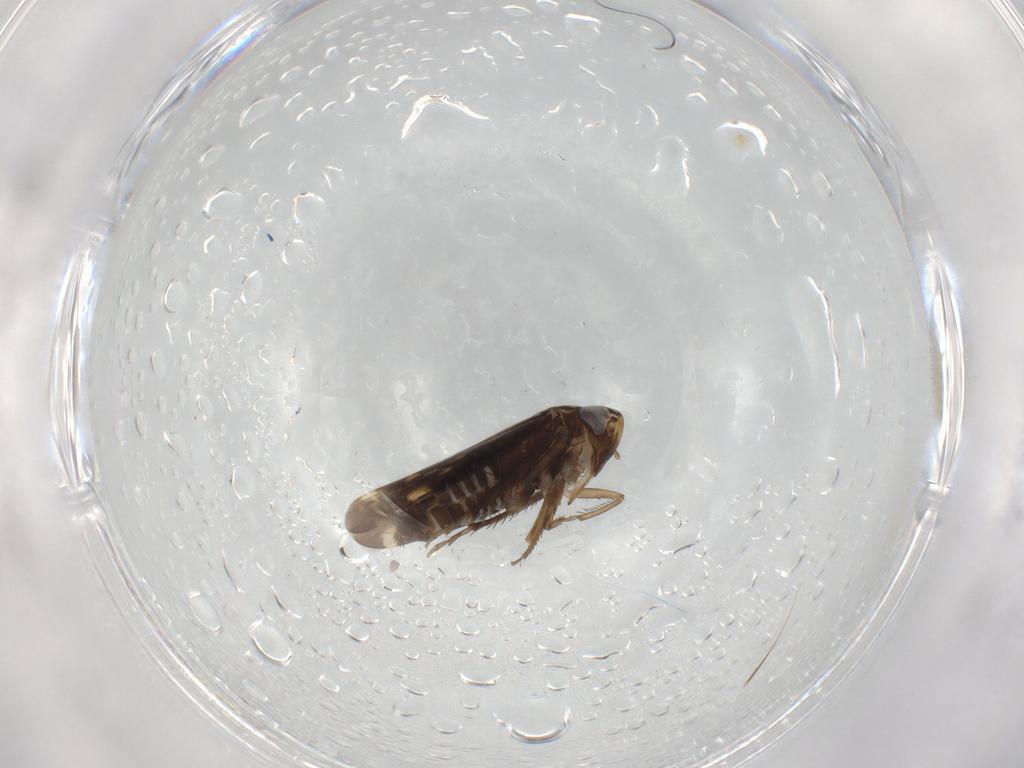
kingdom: Animalia
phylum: Arthropoda
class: Insecta
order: Hemiptera
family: Cicadellidae
